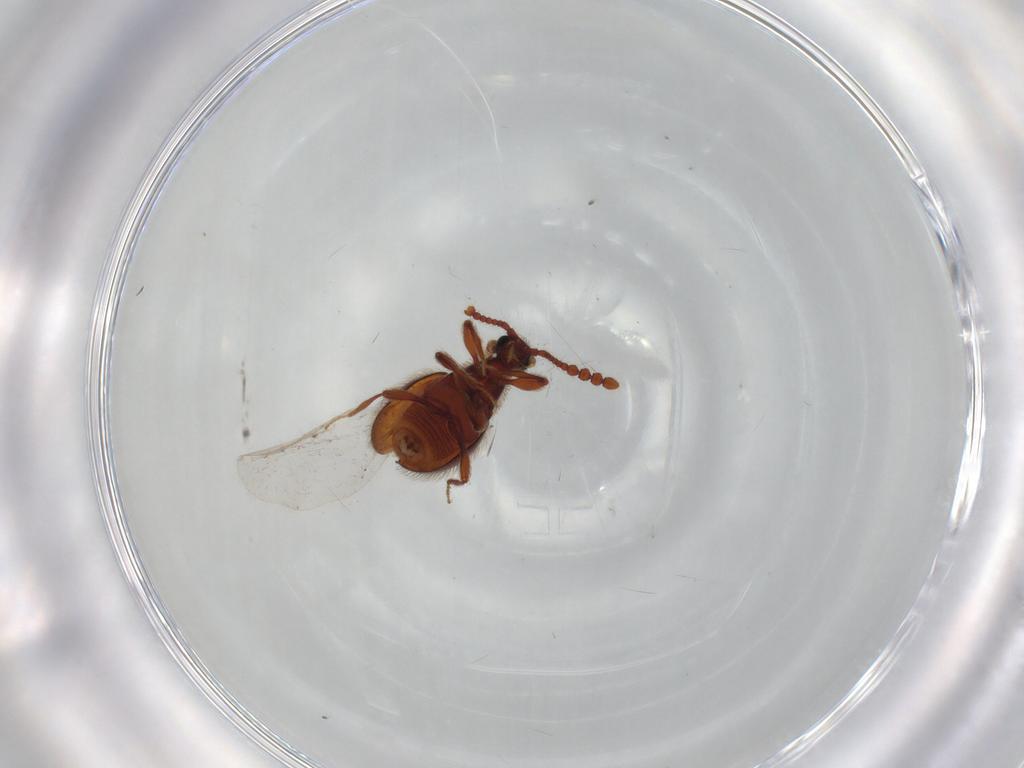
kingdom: Animalia
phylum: Arthropoda
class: Insecta
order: Coleoptera
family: Staphylinidae
